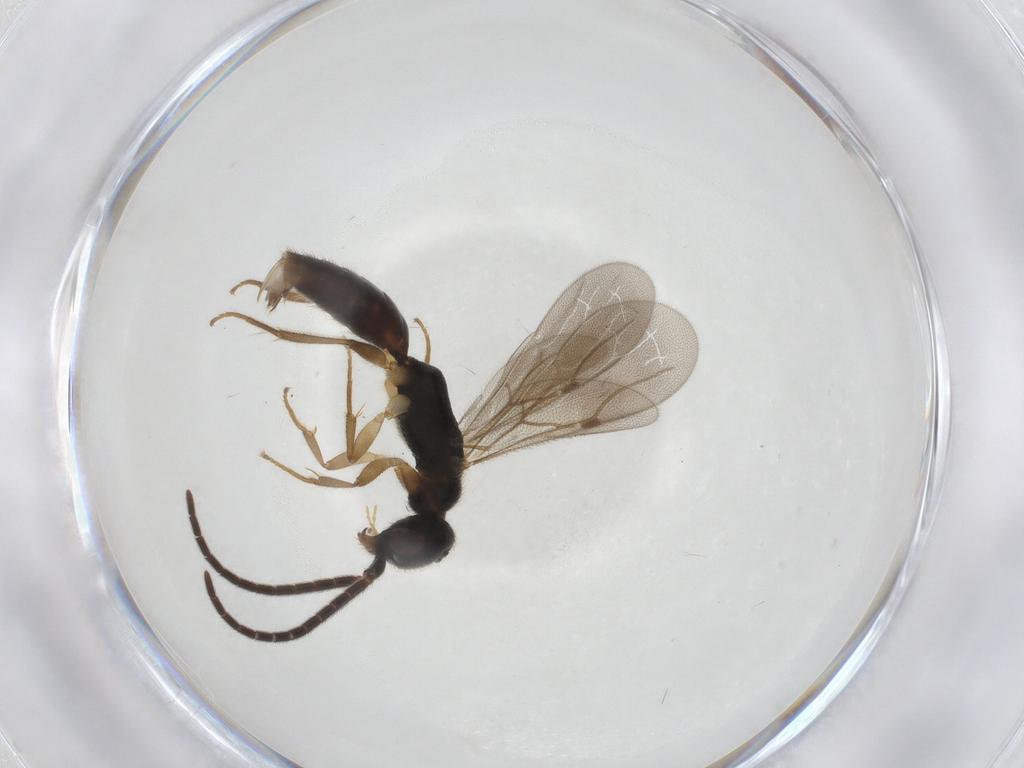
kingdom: Animalia
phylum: Arthropoda
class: Insecta
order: Hymenoptera
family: Bethylidae
